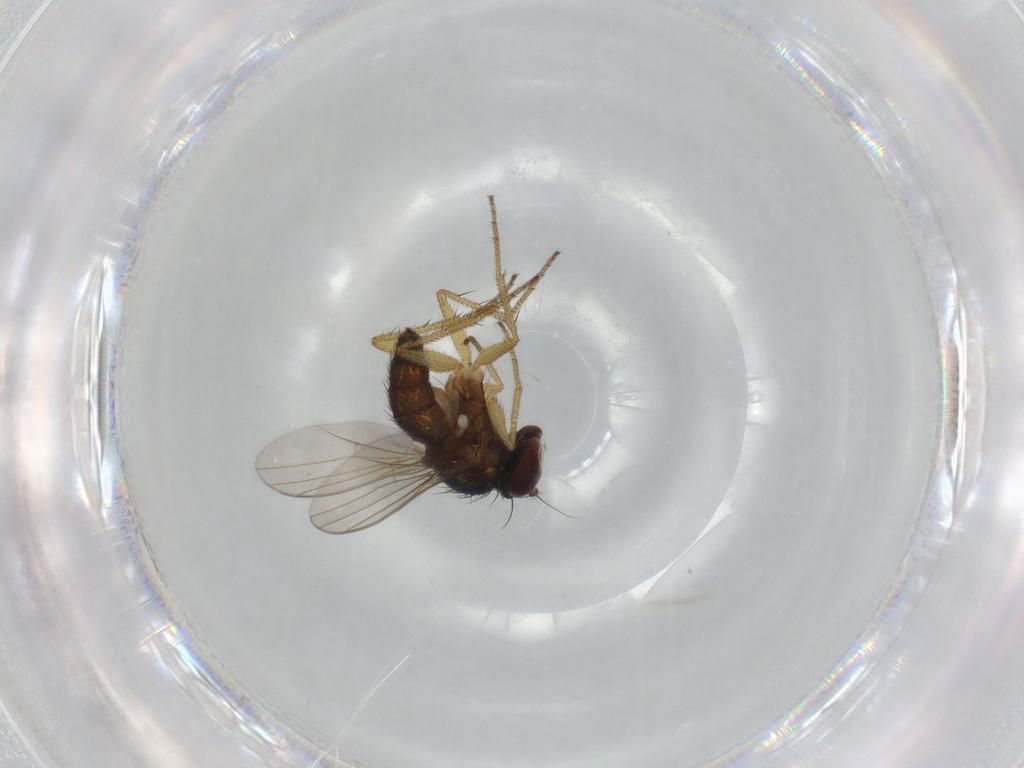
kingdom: Animalia
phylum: Arthropoda
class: Insecta
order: Diptera
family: Dolichopodidae
